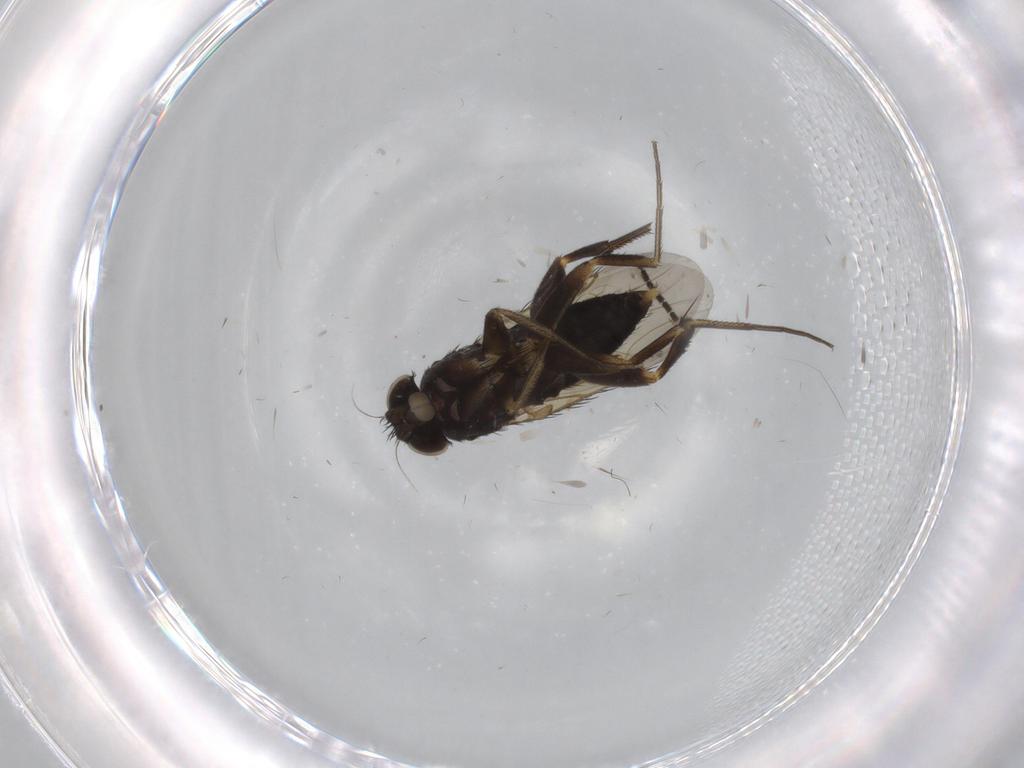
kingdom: Animalia
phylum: Arthropoda
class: Insecta
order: Diptera
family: Phoridae
